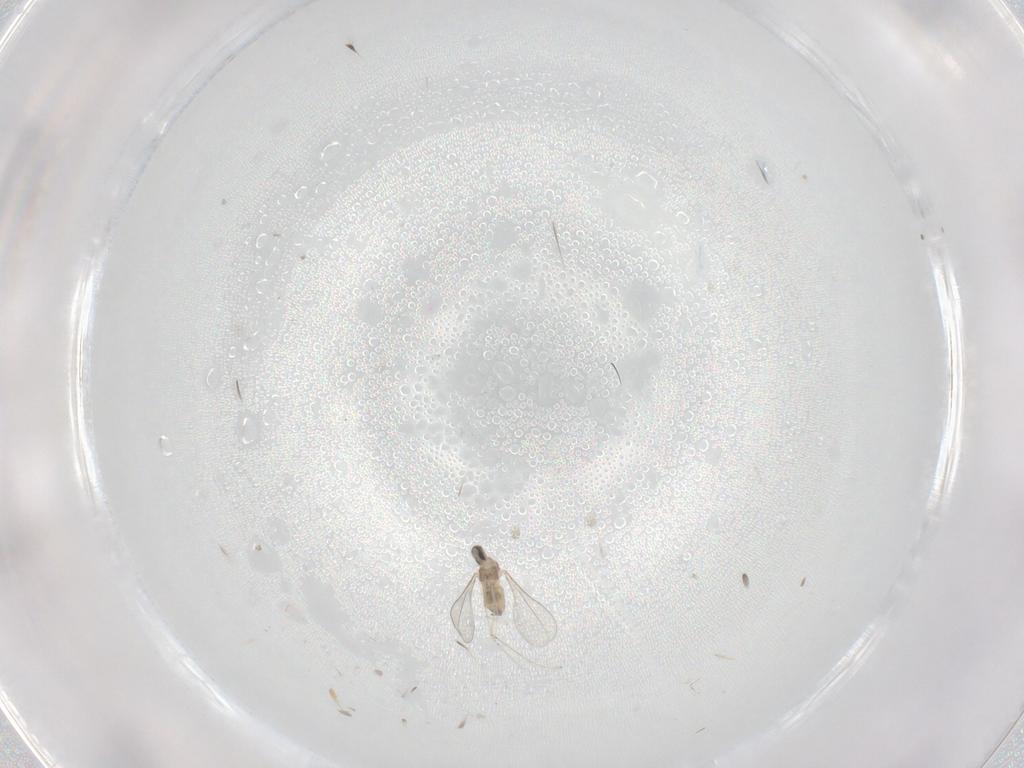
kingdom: Animalia
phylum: Arthropoda
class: Insecta
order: Diptera
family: Cecidomyiidae
